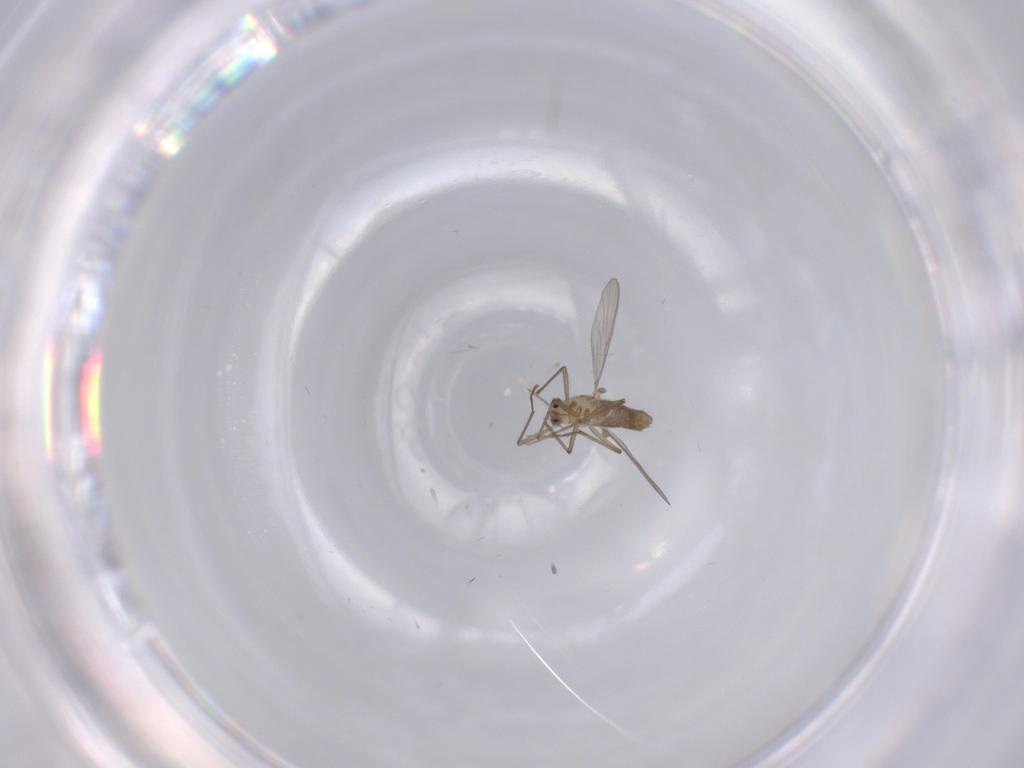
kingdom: Animalia
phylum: Arthropoda
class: Insecta
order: Diptera
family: Chironomidae
